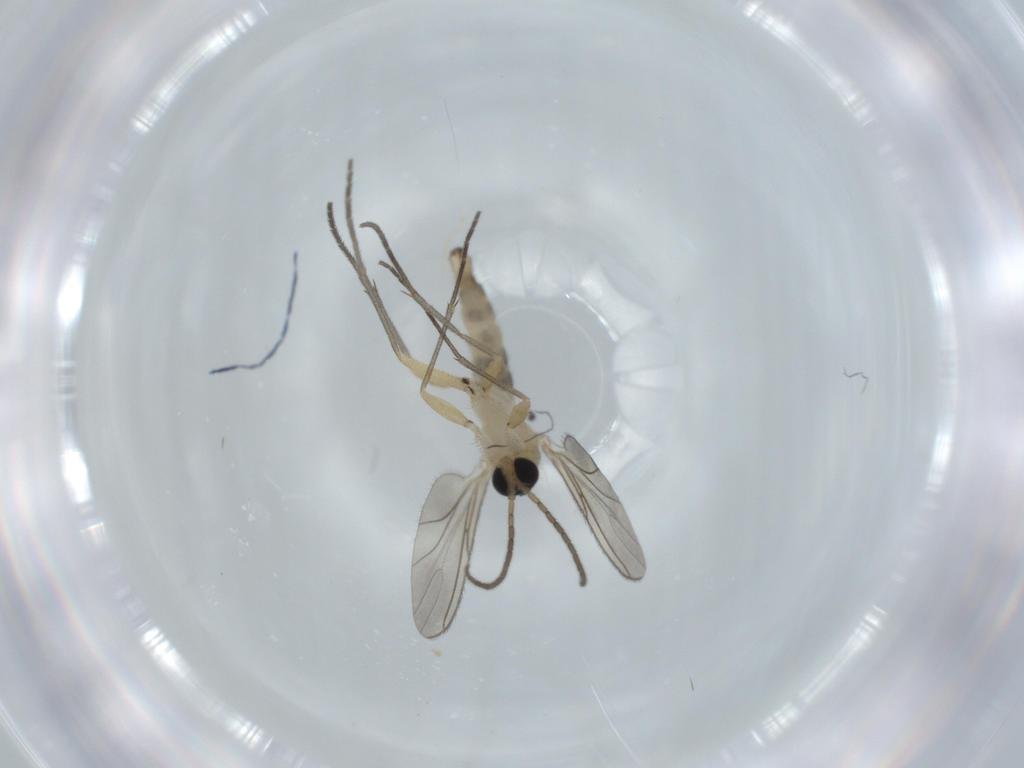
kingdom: Animalia
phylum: Arthropoda
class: Insecta
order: Diptera
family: Sciaridae
